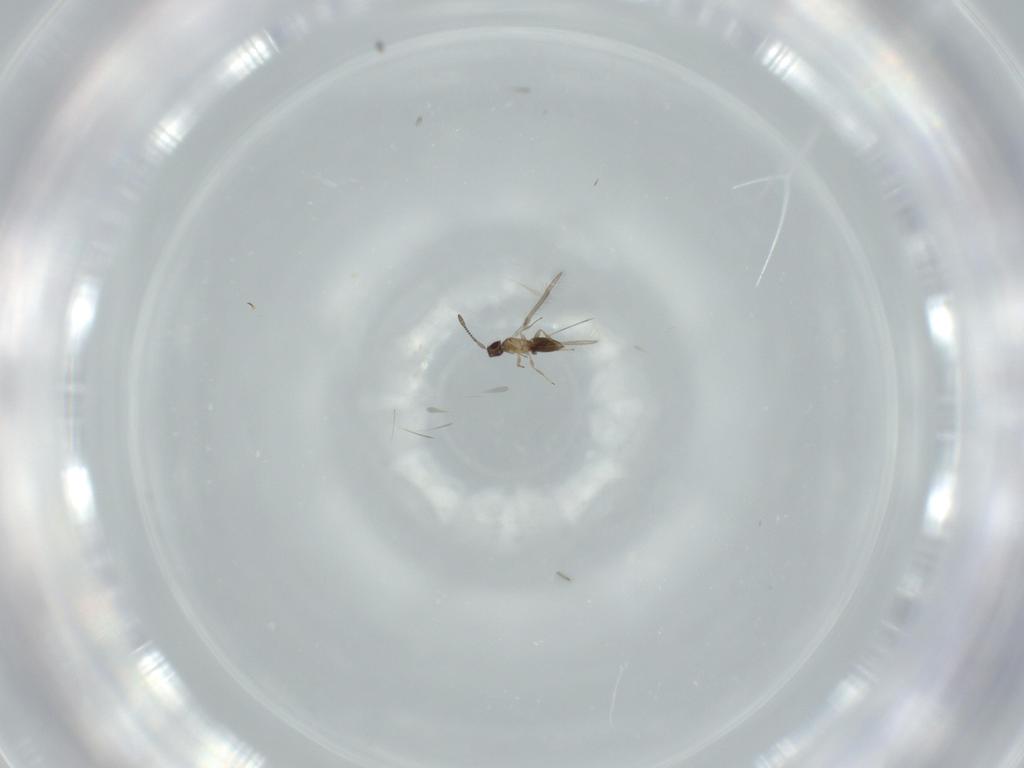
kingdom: Animalia
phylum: Arthropoda
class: Insecta
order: Hymenoptera
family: Mymaridae
